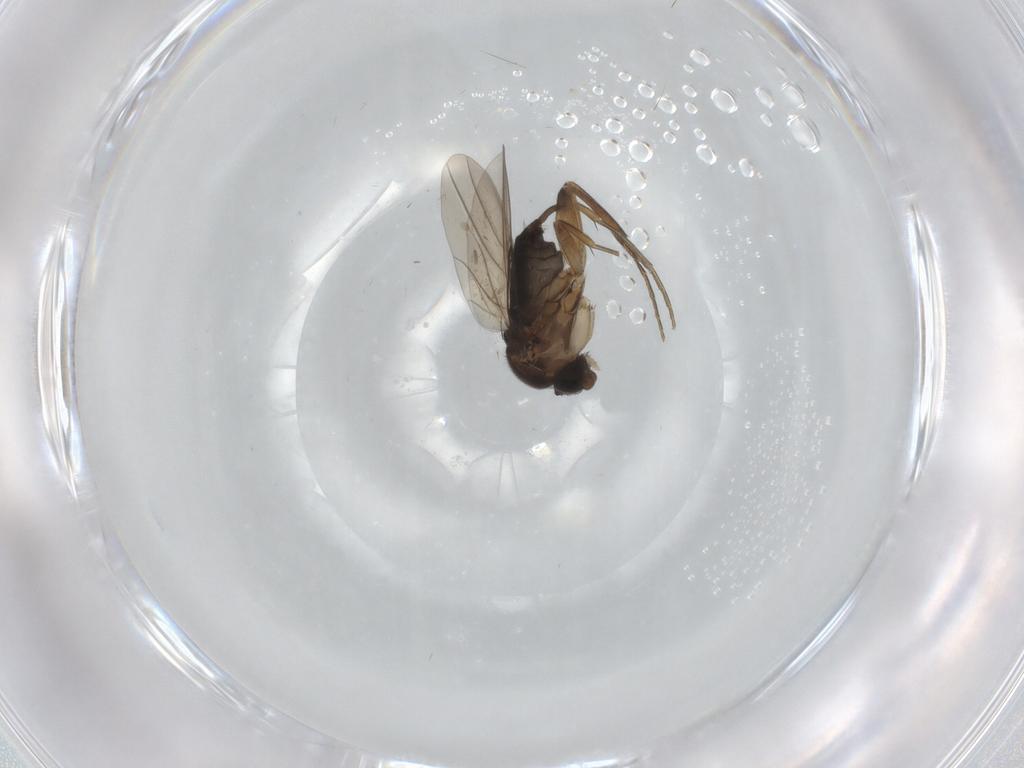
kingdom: Animalia
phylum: Arthropoda
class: Insecta
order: Diptera
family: Phoridae
